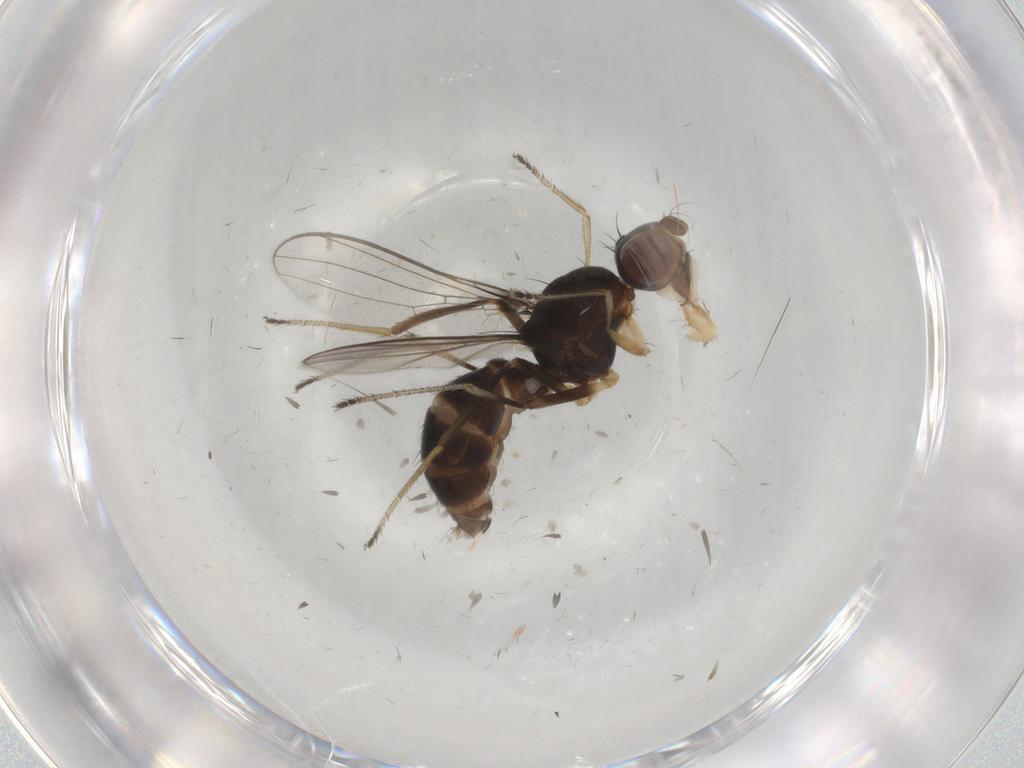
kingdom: Animalia
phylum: Arthropoda
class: Insecta
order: Diptera
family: Sepsidae
